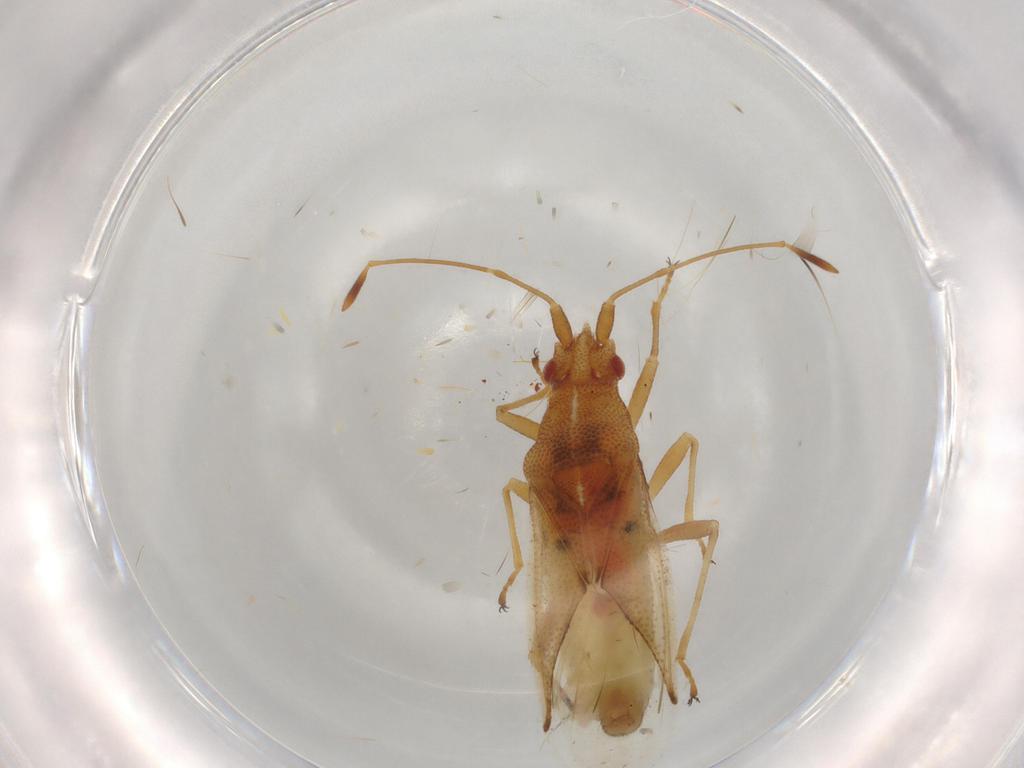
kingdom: Animalia
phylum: Arthropoda
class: Insecta
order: Hemiptera
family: Cymidae
